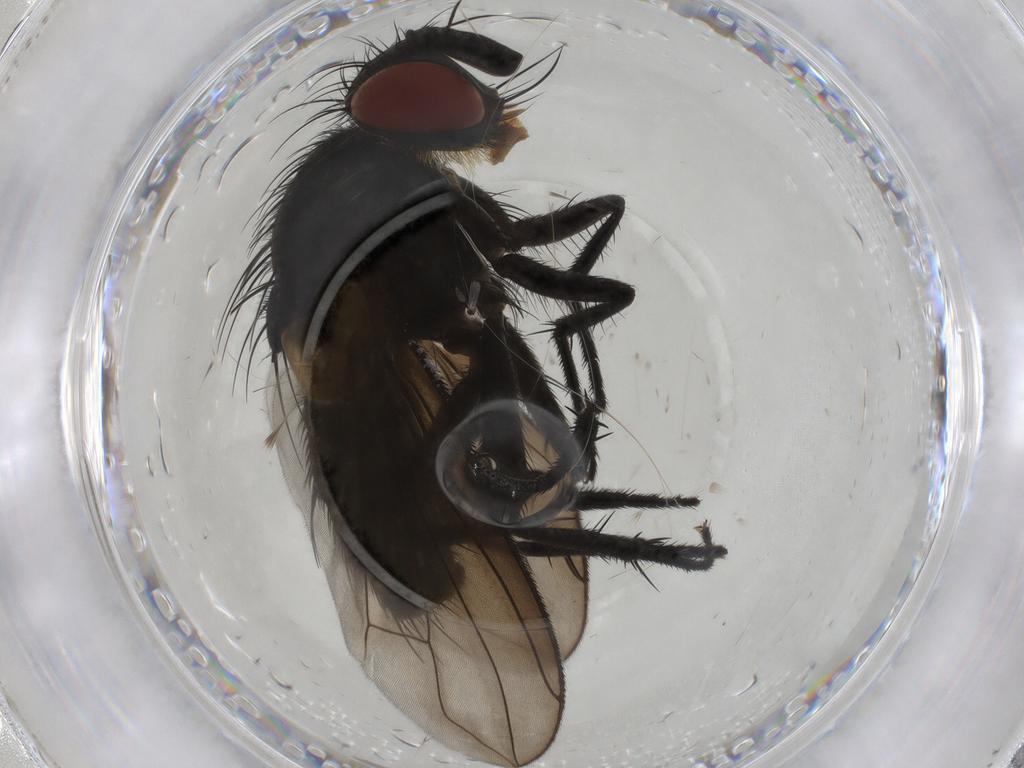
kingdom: Animalia
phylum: Arthropoda
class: Insecta
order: Diptera
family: Tachinidae
